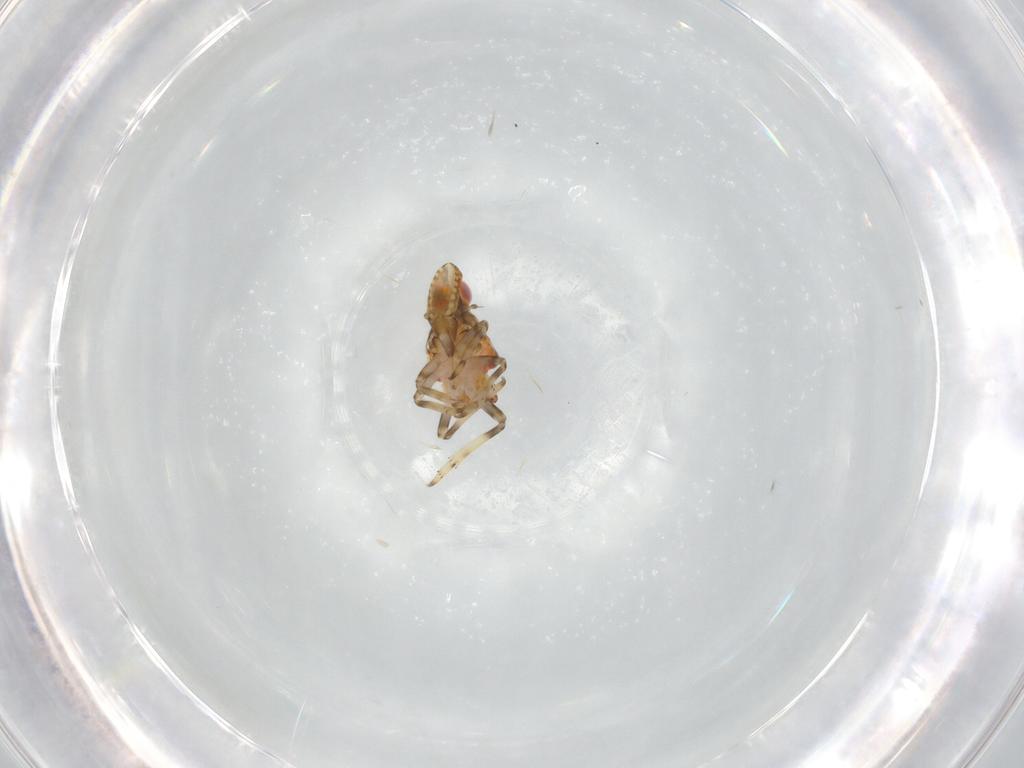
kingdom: Animalia
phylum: Arthropoda
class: Insecta
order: Hemiptera
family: Tropiduchidae
